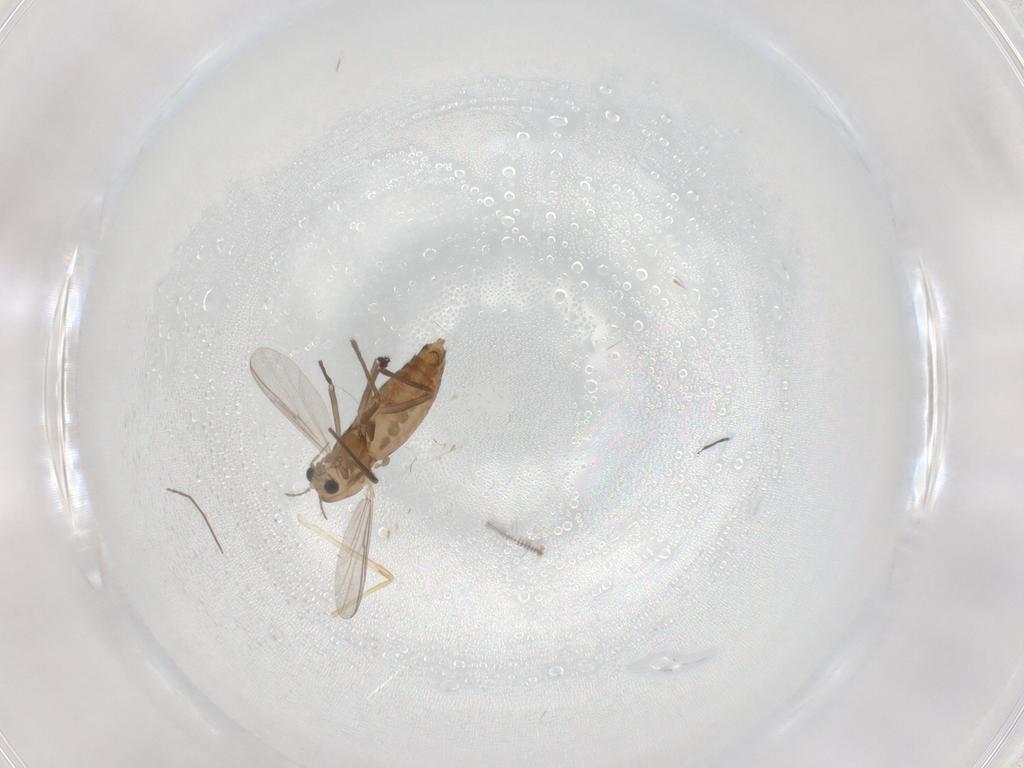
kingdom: Animalia
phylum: Arthropoda
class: Insecta
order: Diptera
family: Chironomidae
